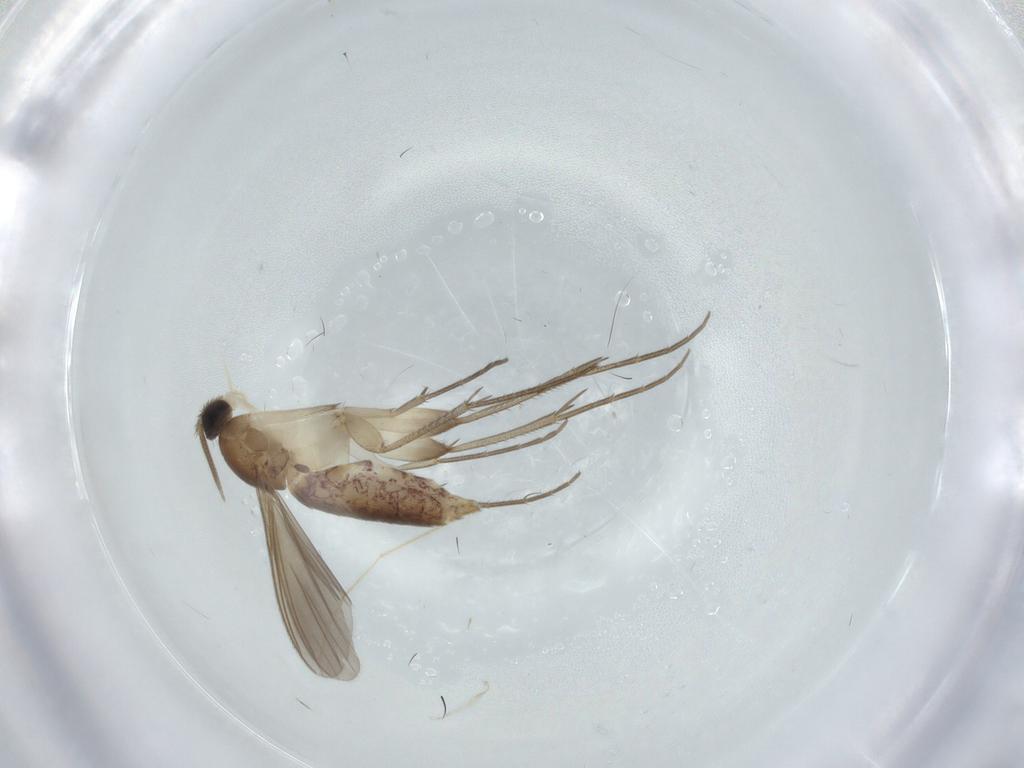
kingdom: Animalia
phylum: Arthropoda
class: Insecta
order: Diptera
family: Mycetophilidae
